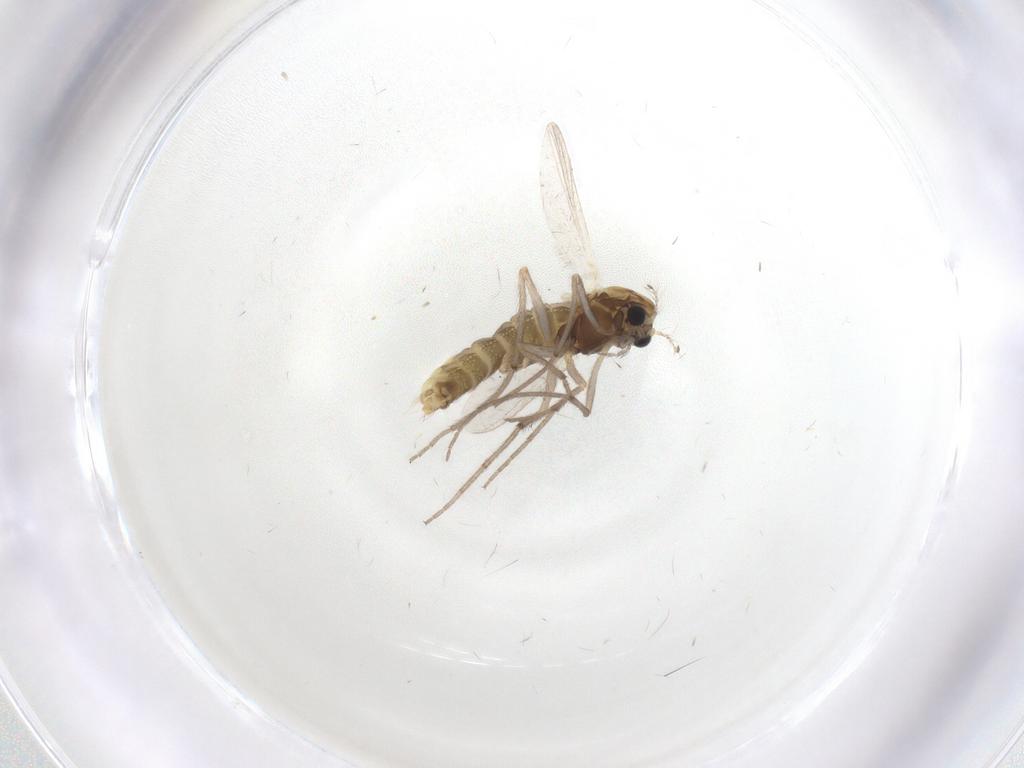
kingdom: Animalia
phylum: Arthropoda
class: Insecta
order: Diptera
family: Chironomidae
